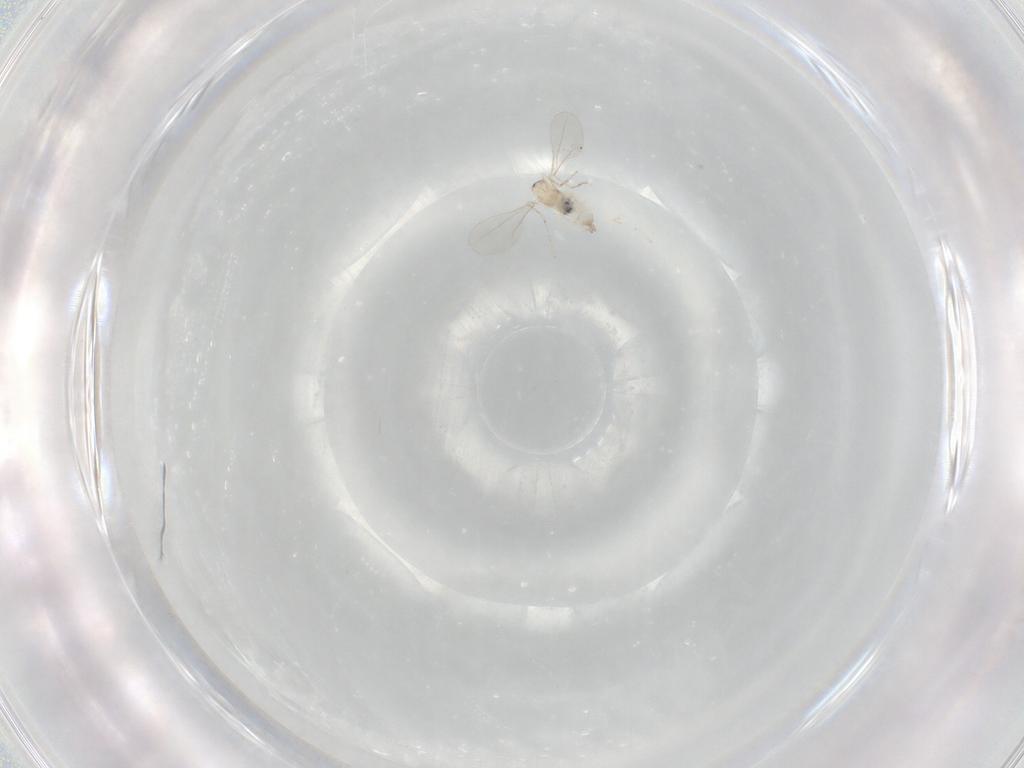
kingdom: Animalia
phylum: Arthropoda
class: Insecta
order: Diptera
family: Cecidomyiidae
